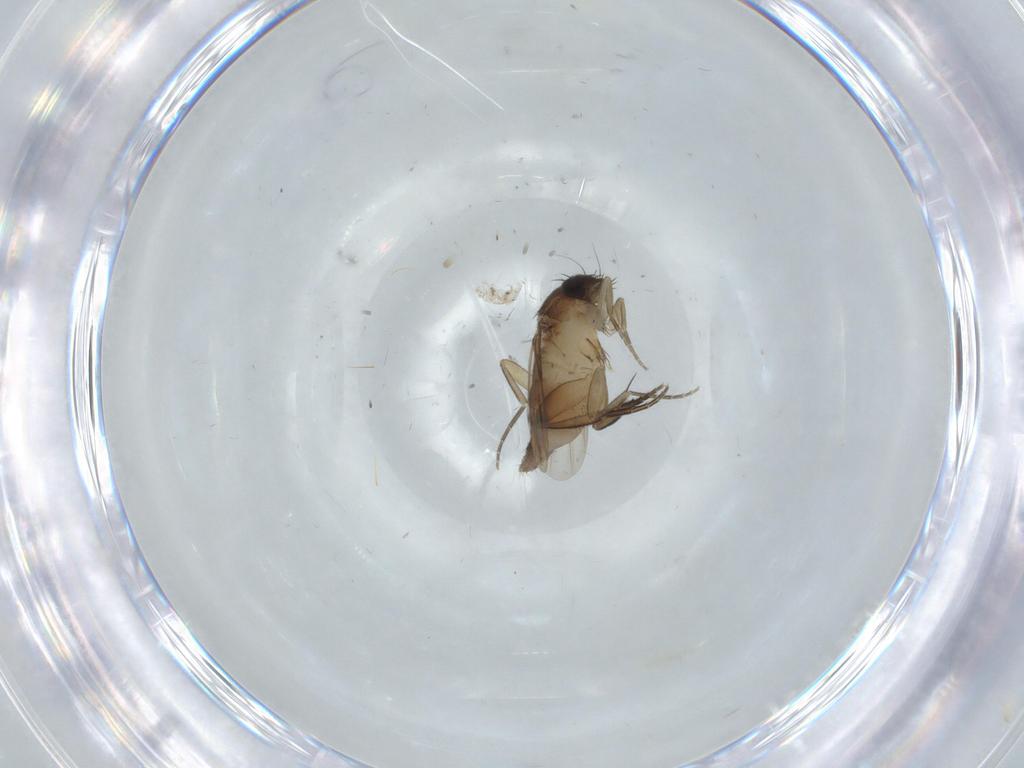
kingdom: Animalia
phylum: Arthropoda
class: Insecta
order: Diptera
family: Phoridae
